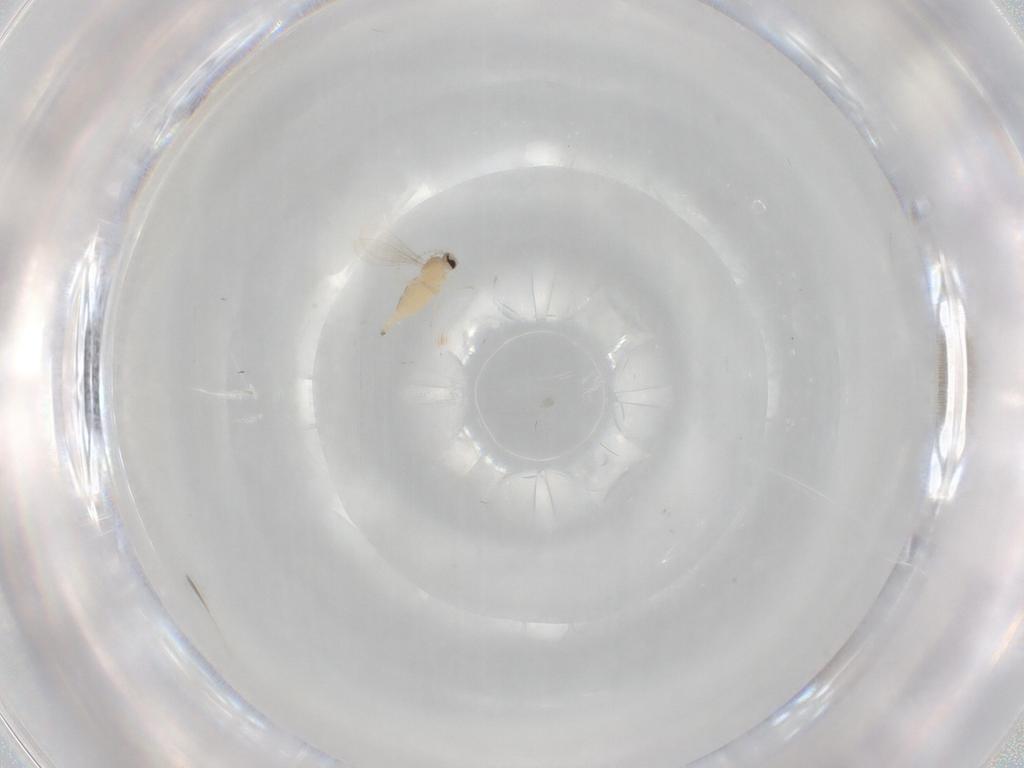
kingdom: Animalia
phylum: Arthropoda
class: Insecta
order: Diptera
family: Cecidomyiidae
